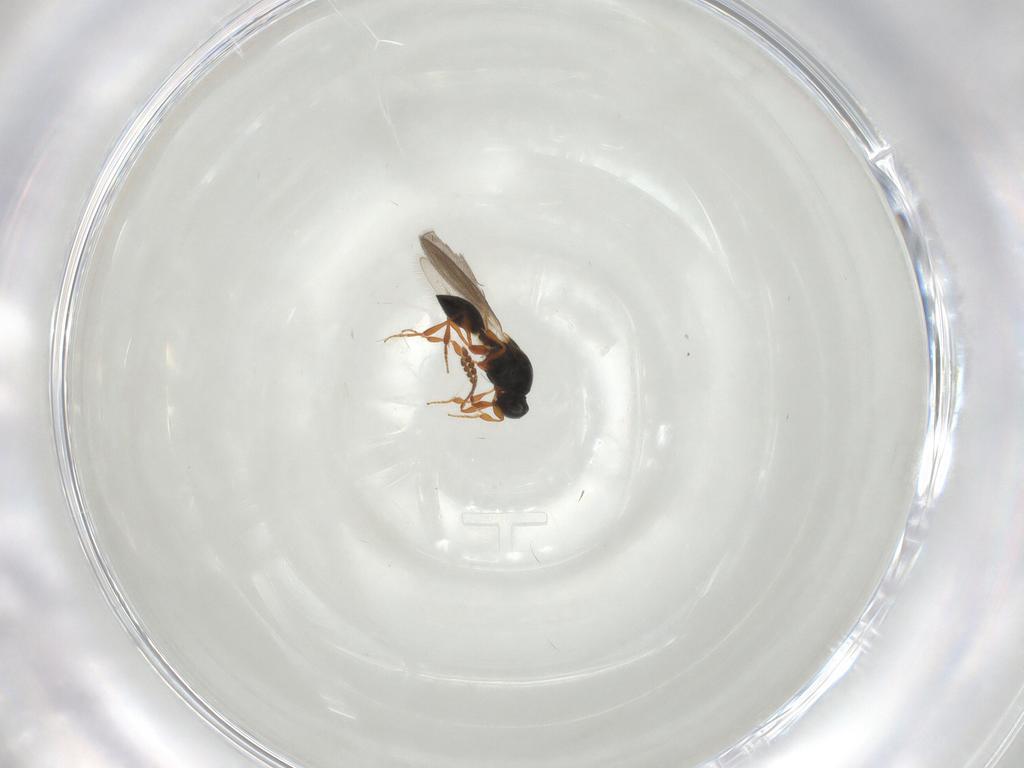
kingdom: Animalia
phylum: Arthropoda
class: Insecta
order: Hymenoptera
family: Platygastridae
